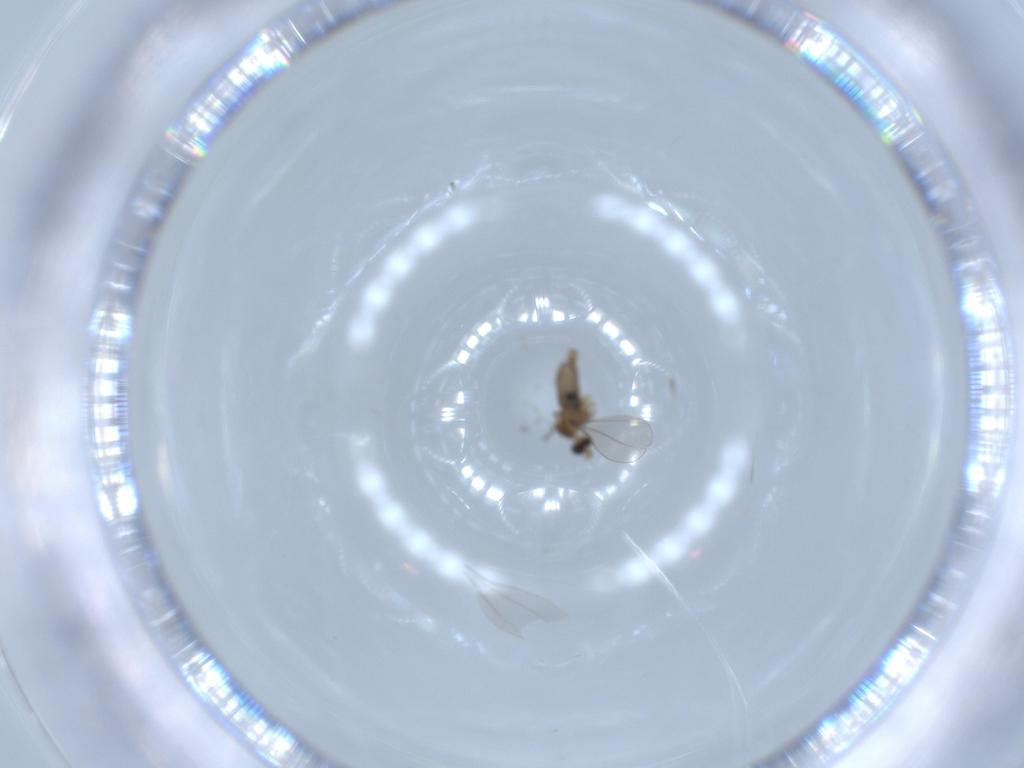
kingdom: Animalia
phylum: Arthropoda
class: Insecta
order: Diptera
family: Cecidomyiidae
